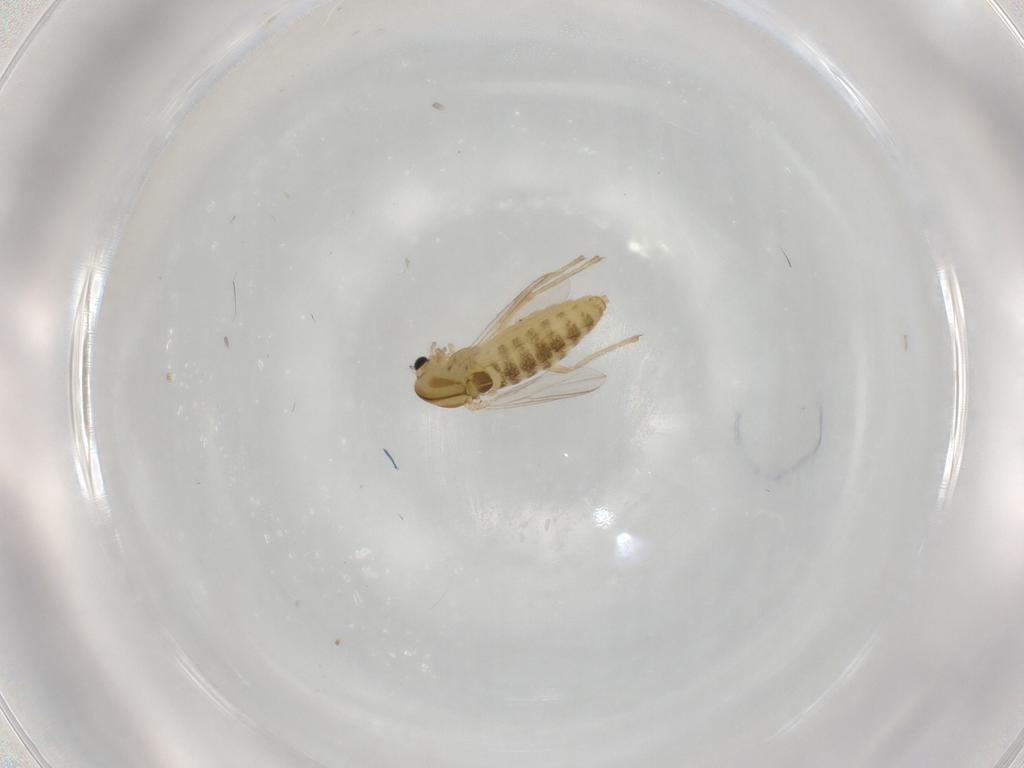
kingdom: Animalia
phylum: Arthropoda
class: Insecta
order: Diptera
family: Chironomidae
